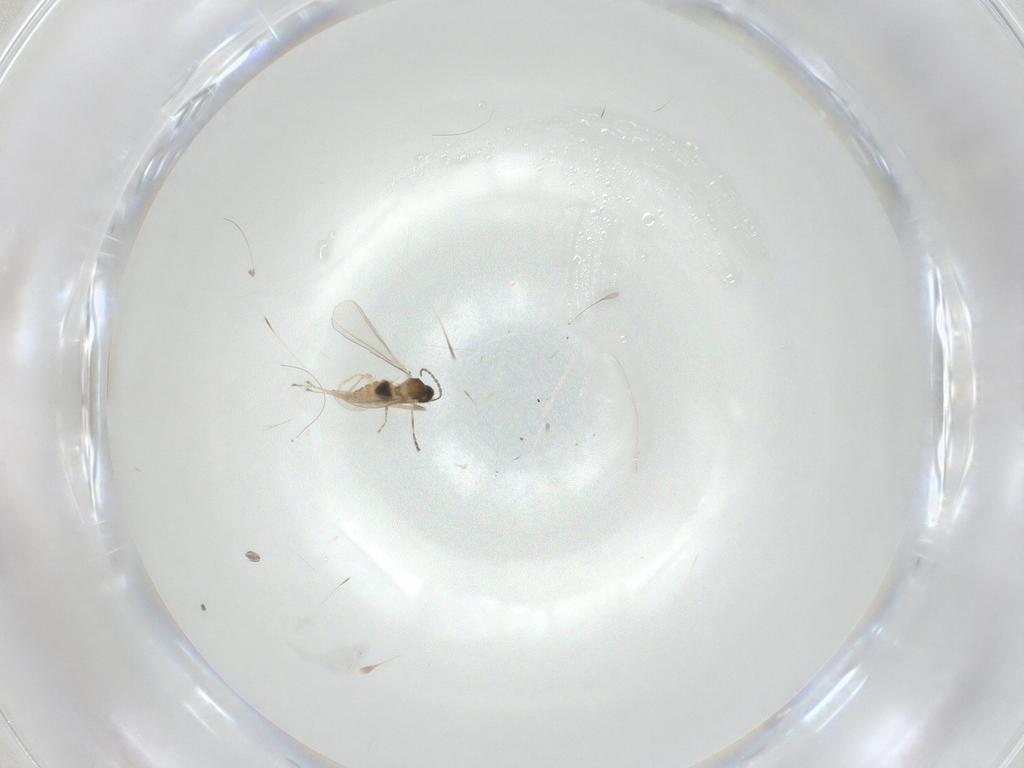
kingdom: Animalia
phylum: Arthropoda
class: Insecta
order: Diptera
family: Cecidomyiidae
